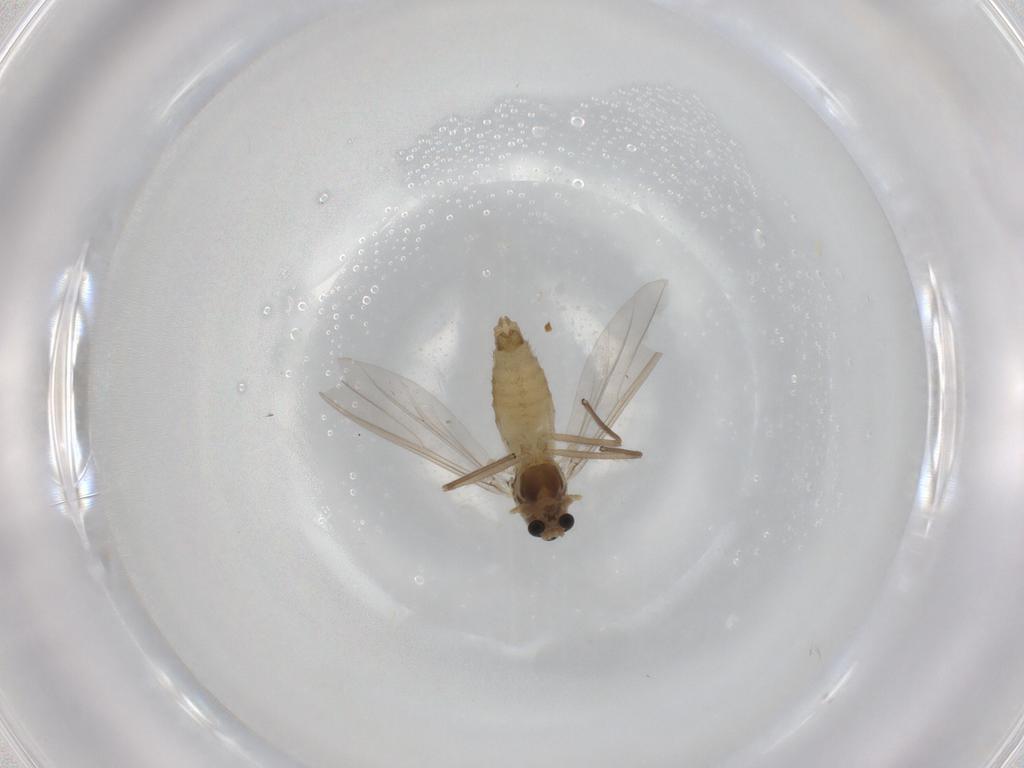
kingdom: Animalia
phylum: Arthropoda
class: Insecta
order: Diptera
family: Chironomidae
